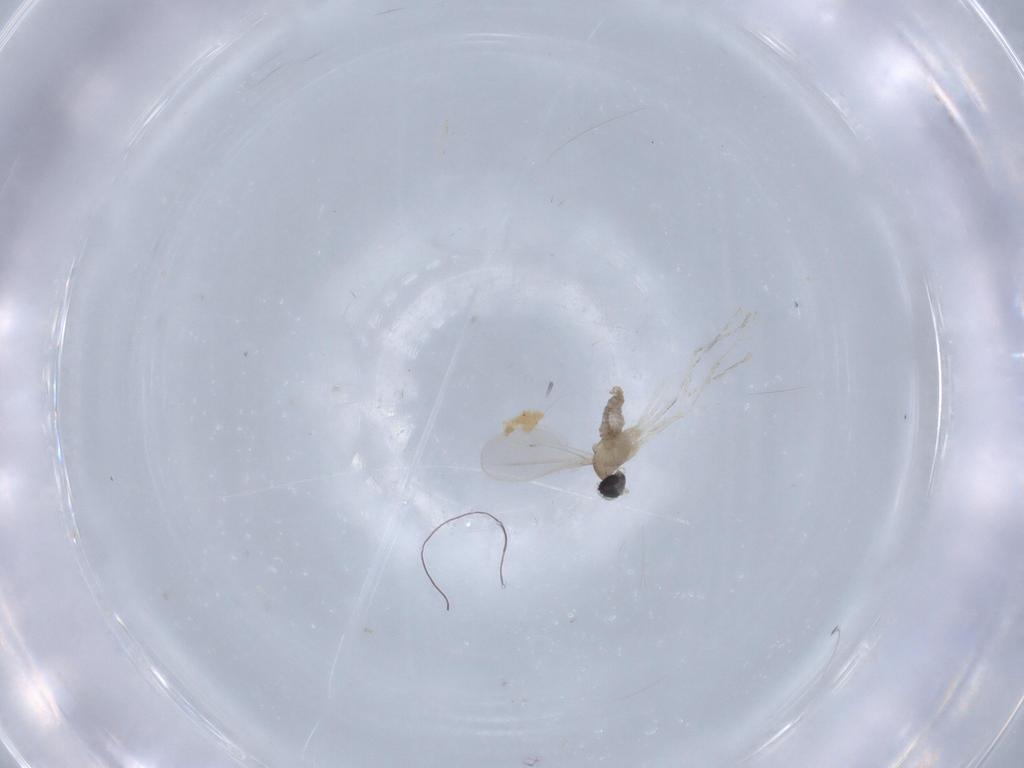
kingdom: Animalia
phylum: Arthropoda
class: Insecta
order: Diptera
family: Cecidomyiidae
